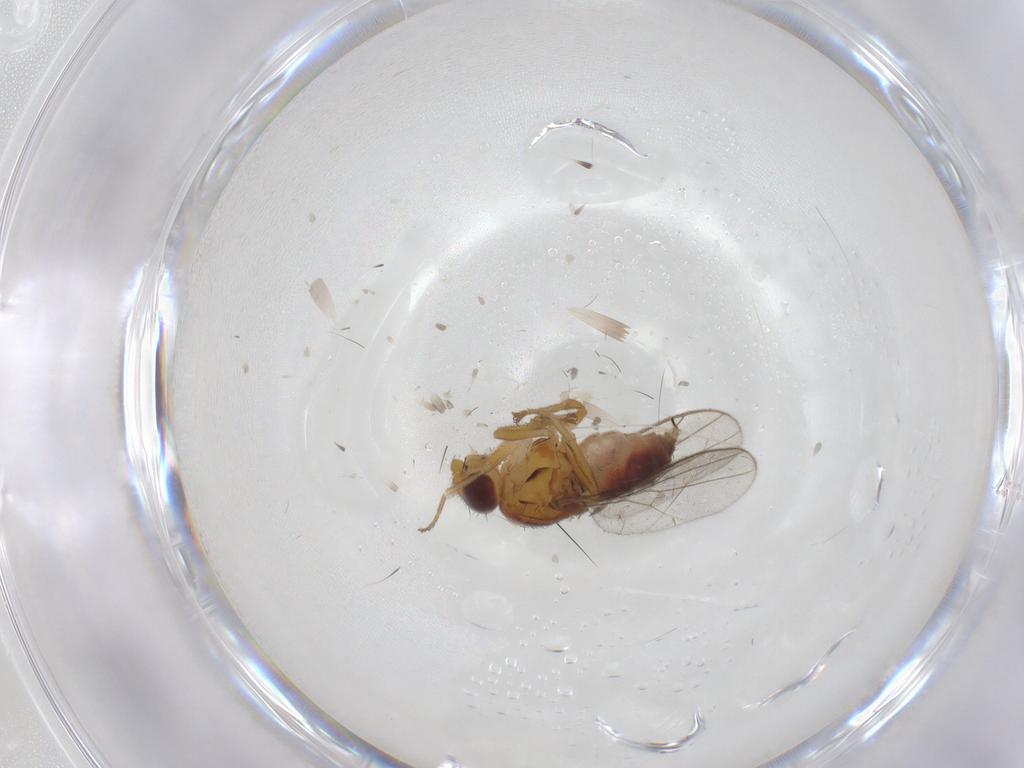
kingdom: Animalia
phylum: Arthropoda
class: Insecta
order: Diptera
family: Chloropidae
